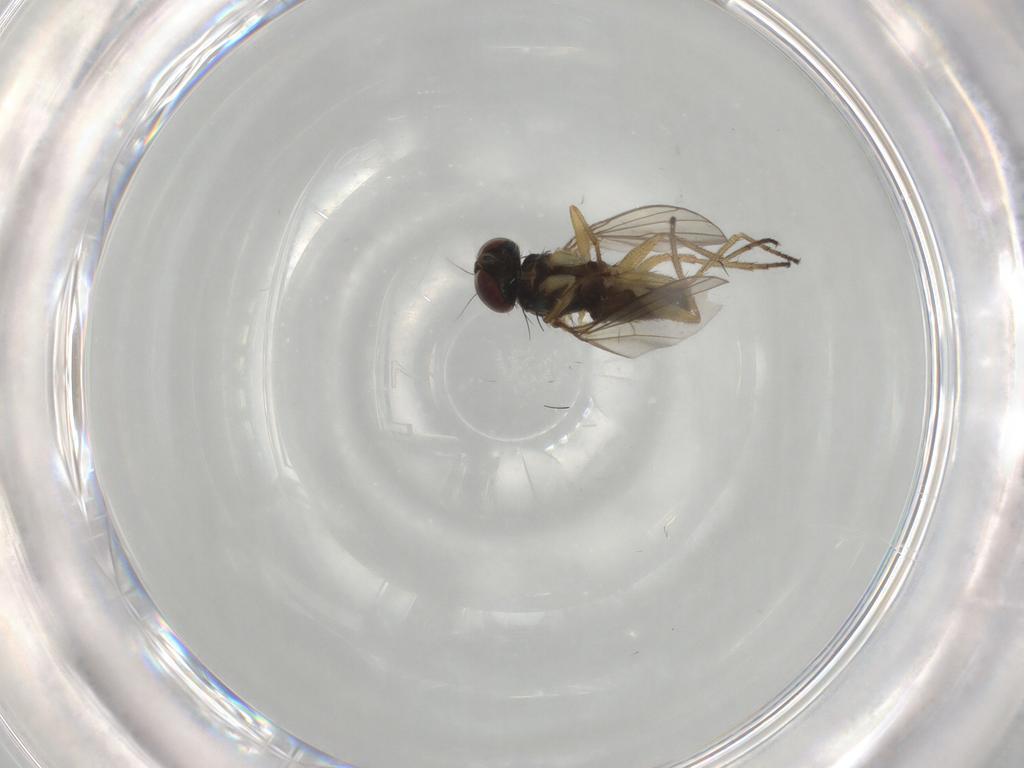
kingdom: Animalia
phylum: Arthropoda
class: Insecta
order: Diptera
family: Dolichopodidae
